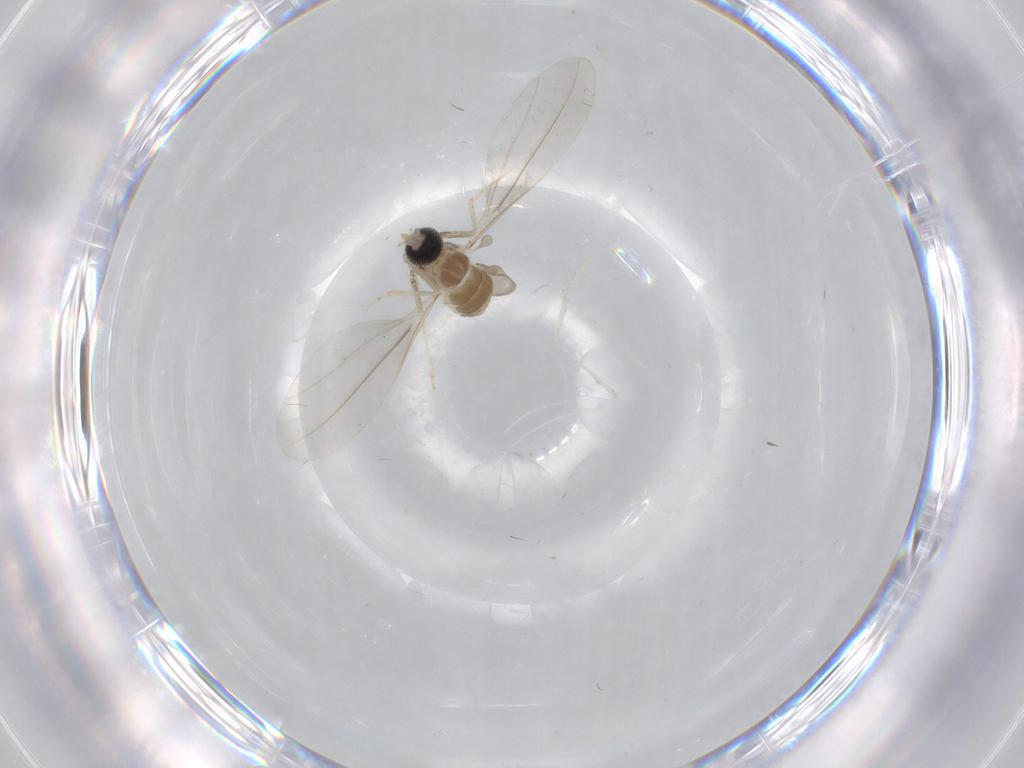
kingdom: Animalia
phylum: Arthropoda
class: Insecta
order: Diptera
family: Cecidomyiidae
